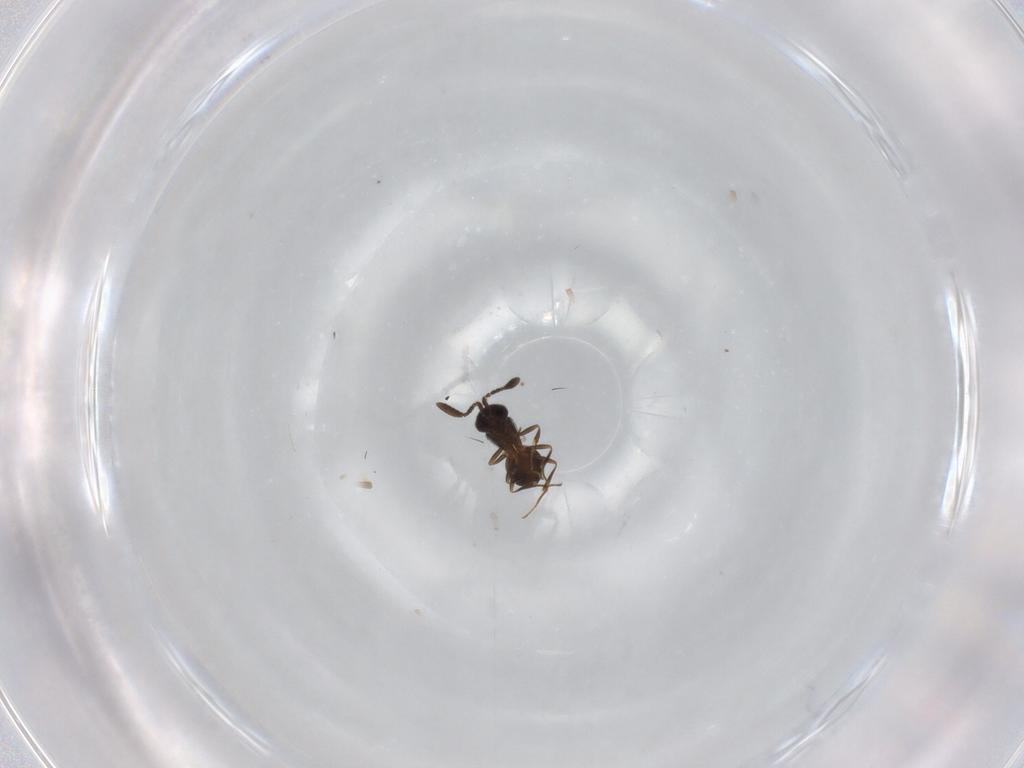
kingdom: Animalia
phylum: Arthropoda
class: Insecta
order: Hymenoptera
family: Scelionidae
